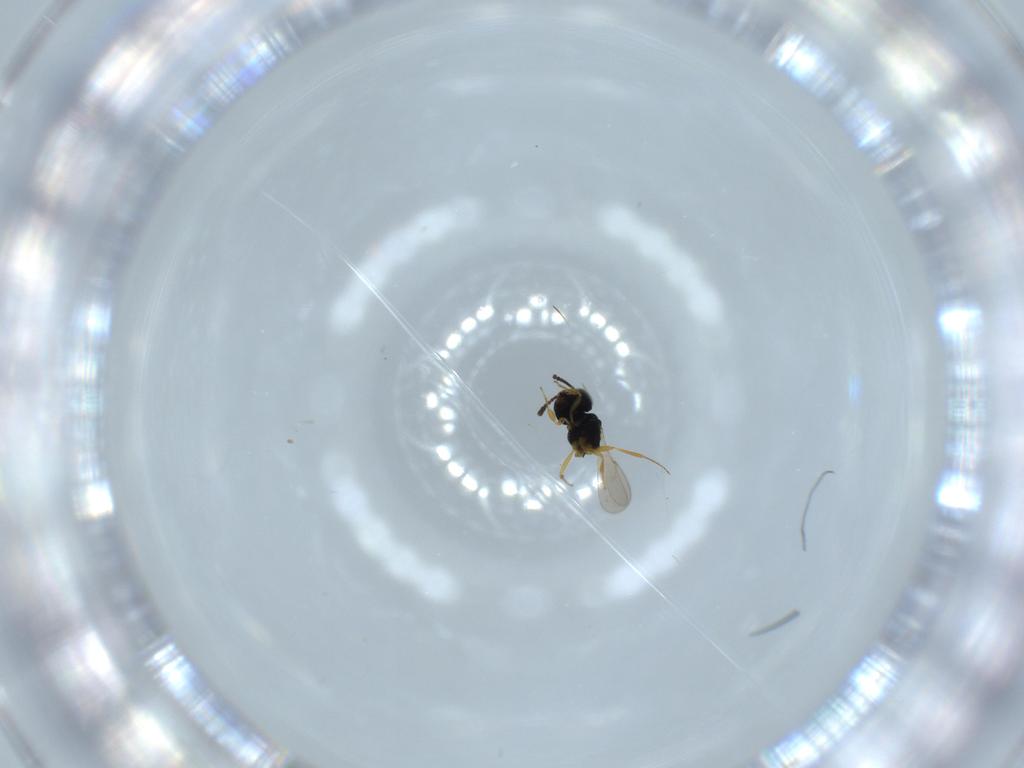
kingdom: Animalia
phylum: Arthropoda
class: Insecta
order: Hymenoptera
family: Scelionidae
